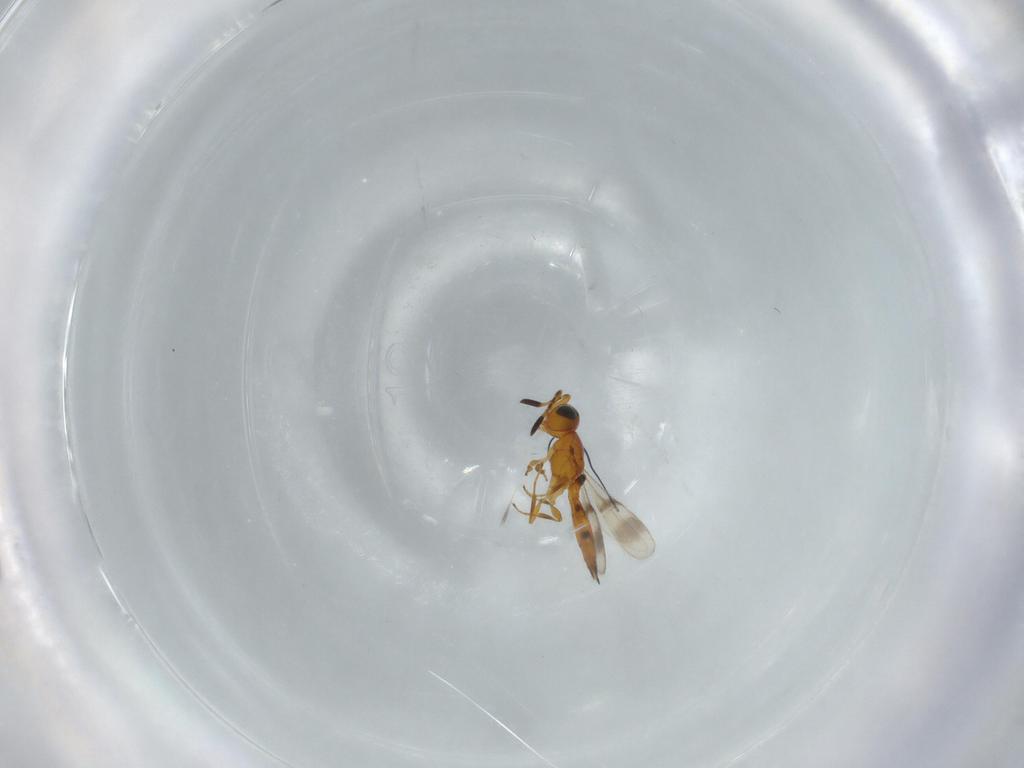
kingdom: Animalia
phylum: Arthropoda
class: Insecta
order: Hymenoptera
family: Scelionidae
